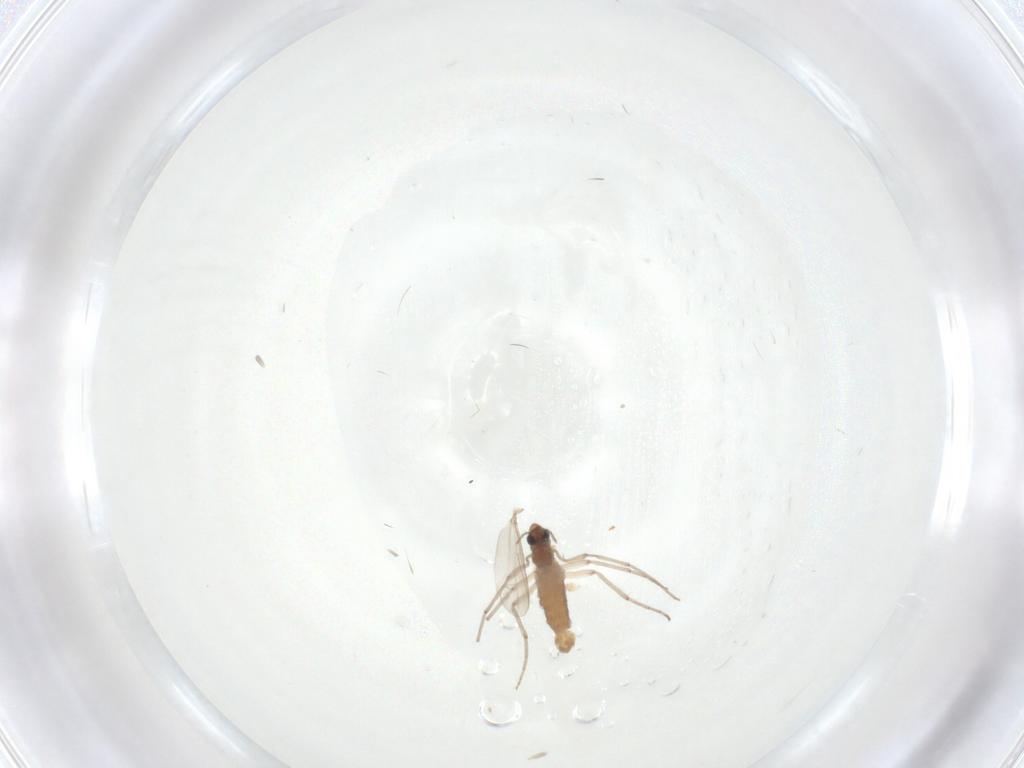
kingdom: Animalia
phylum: Arthropoda
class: Insecta
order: Diptera
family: Chironomidae
